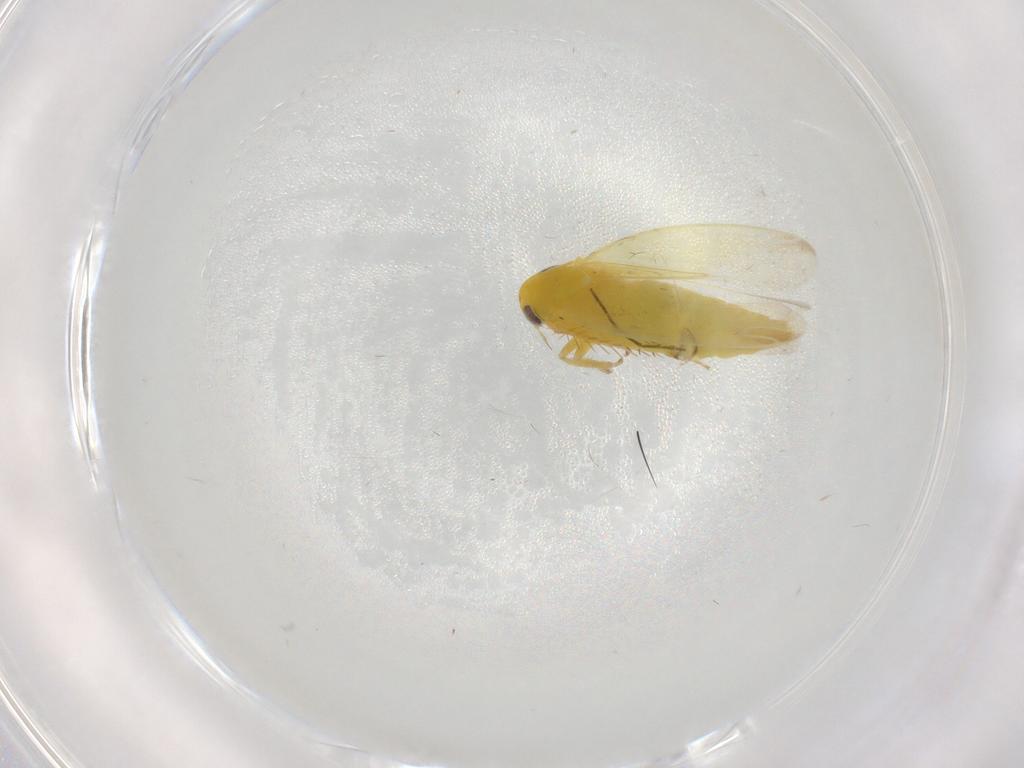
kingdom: Animalia
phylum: Arthropoda
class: Insecta
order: Hemiptera
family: Cicadellidae
